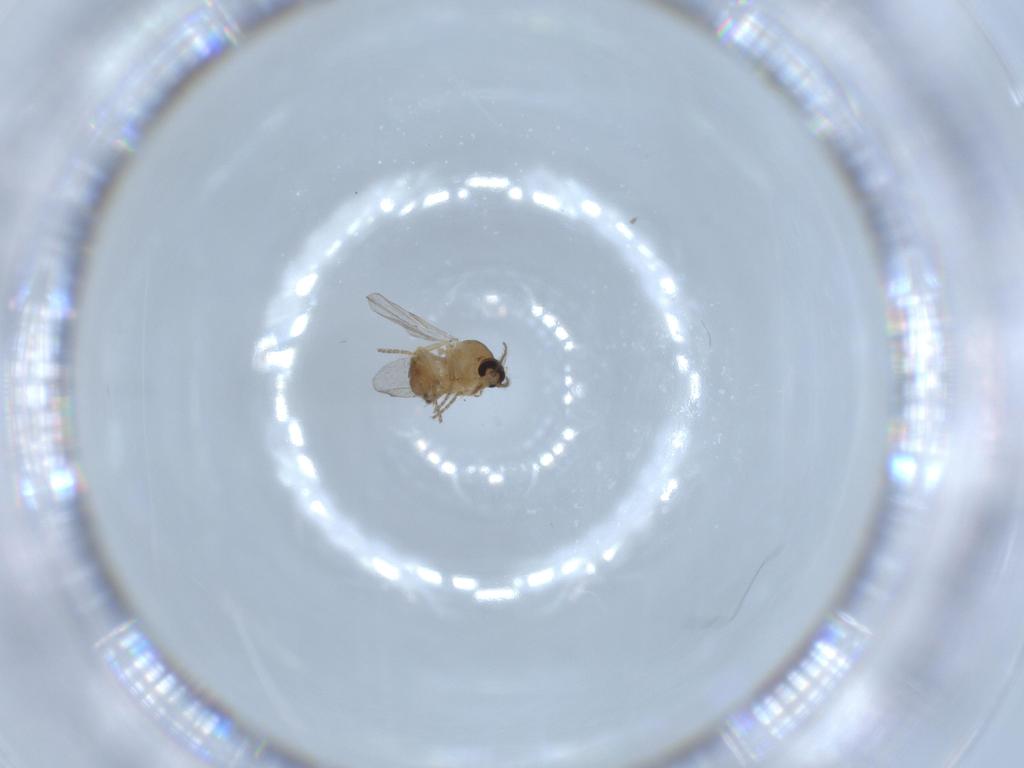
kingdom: Animalia
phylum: Arthropoda
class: Insecta
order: Diptera
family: Ceratopogonidae
